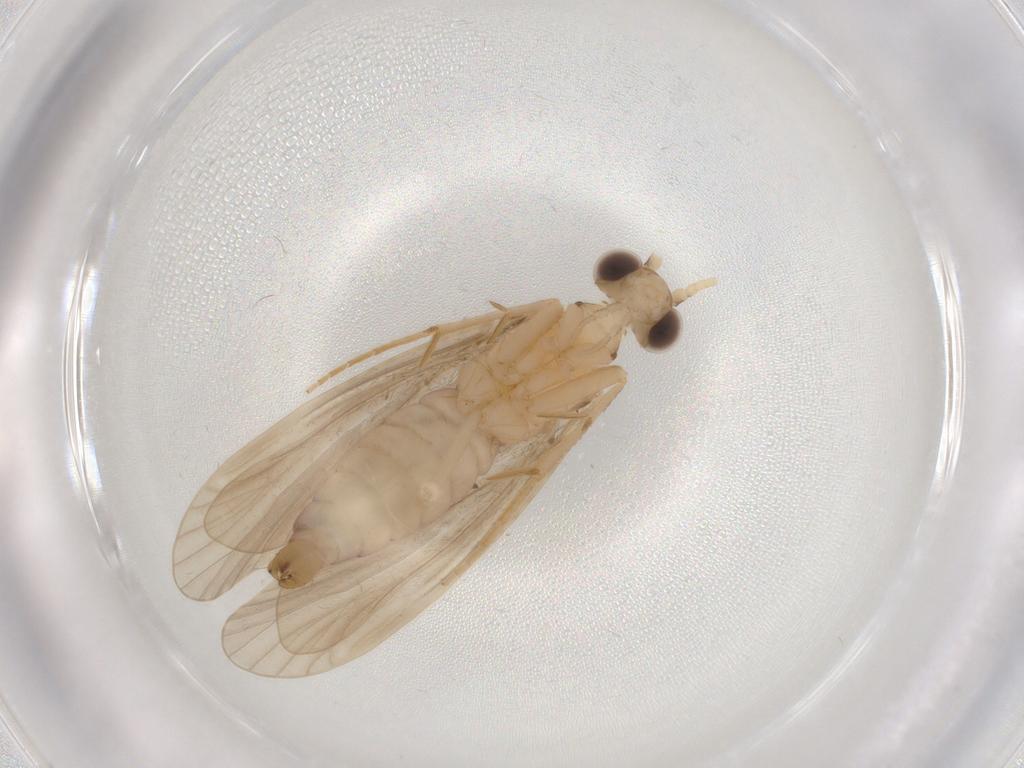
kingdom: Animalia
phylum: Arthropoda
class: Insecta
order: Trichoptera
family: Ecnomidae
